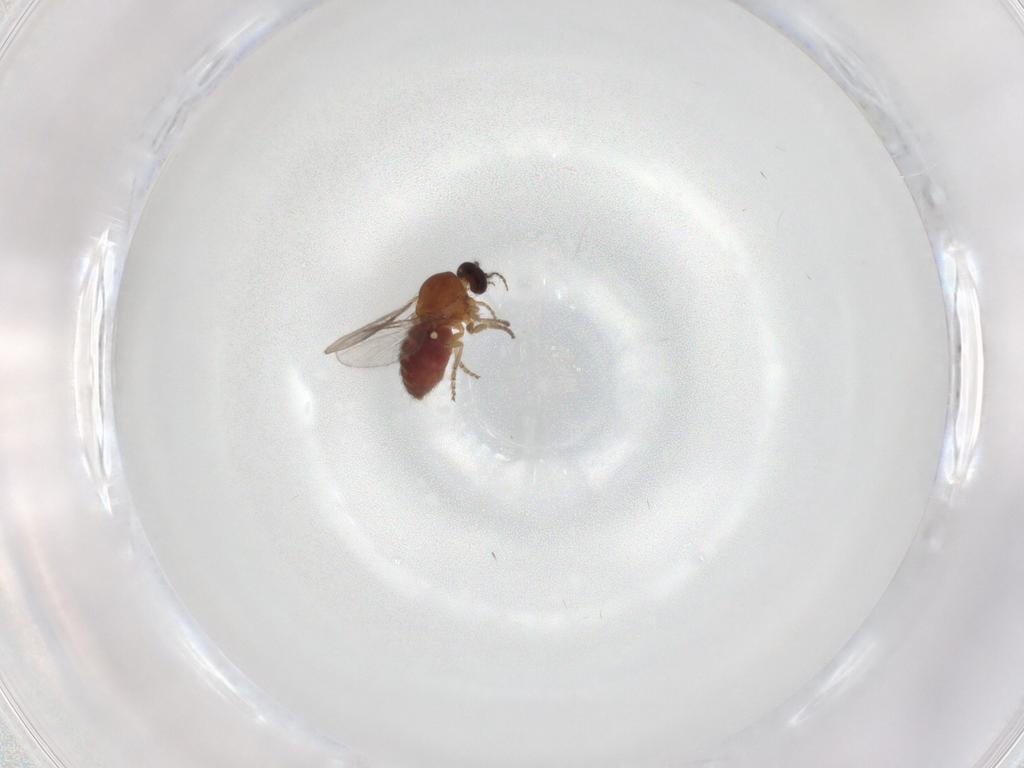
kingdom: Animalia
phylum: Arthropoda
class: Insecta
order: Diptera
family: Ceratopogonidae
